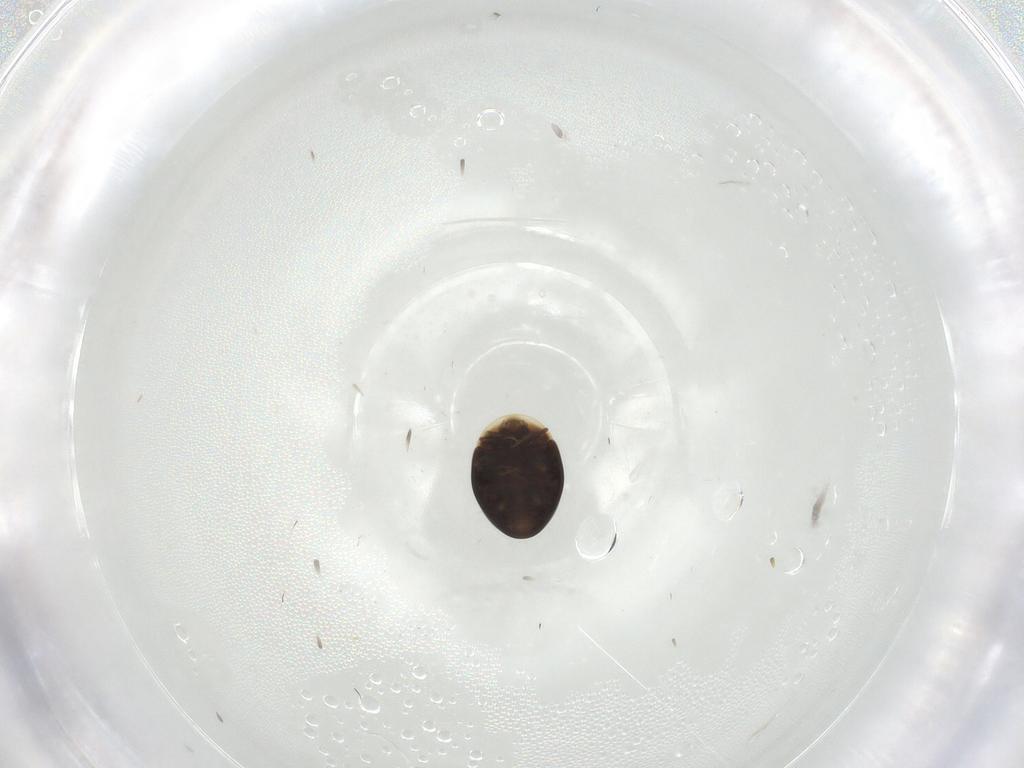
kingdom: Animalia
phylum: Arthropoda
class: Insecta
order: Coleoptera
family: Corylophidae
